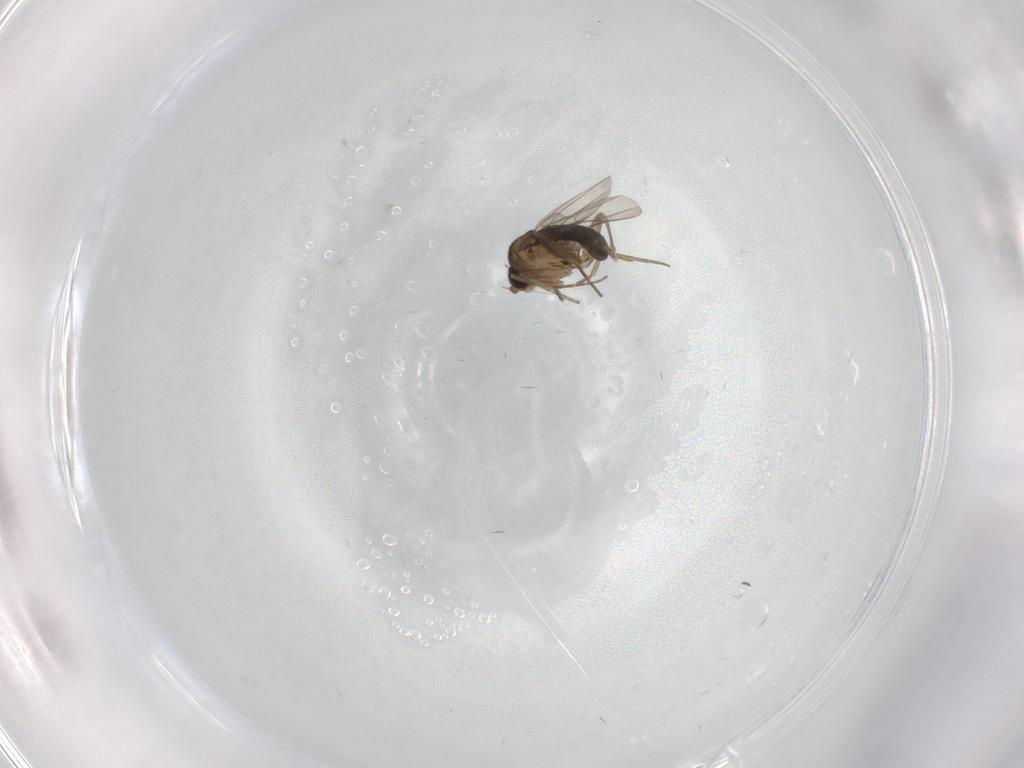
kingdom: Animalia
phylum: Arthropoda
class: Insecta
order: Diptera
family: Phoridae
